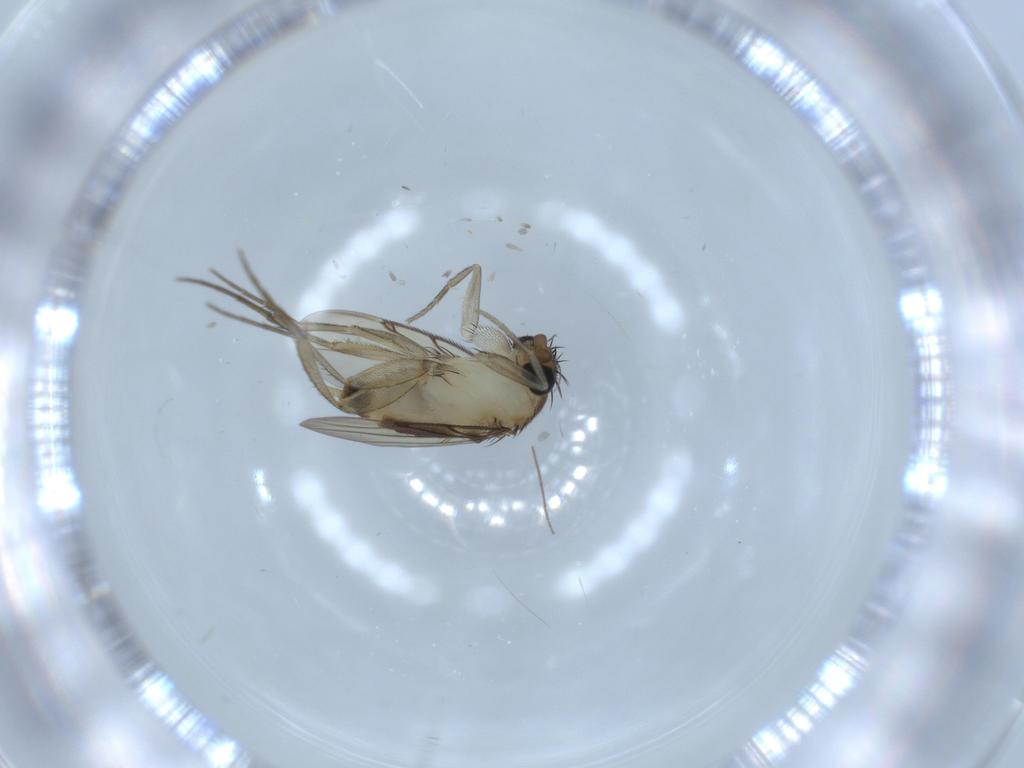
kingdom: Animalia
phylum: Arthropoda
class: Insecta
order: Diptera
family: Phoridae
